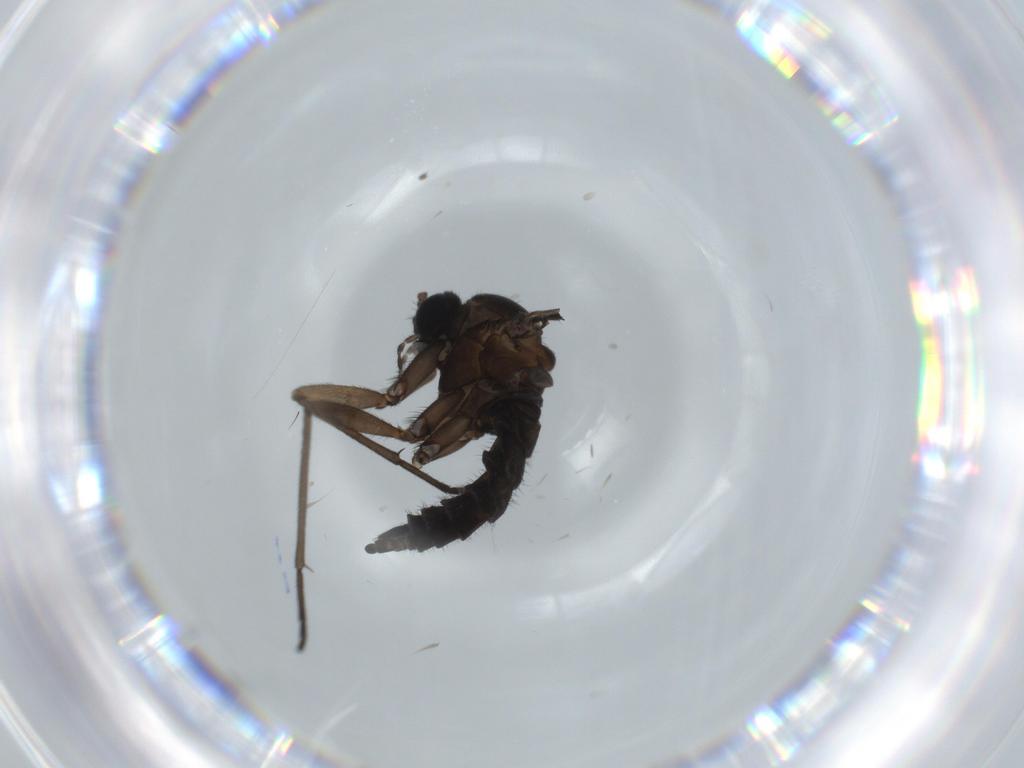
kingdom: Animalia
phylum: Arthropoda
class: Insecta
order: Diptera
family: Sciaridae
